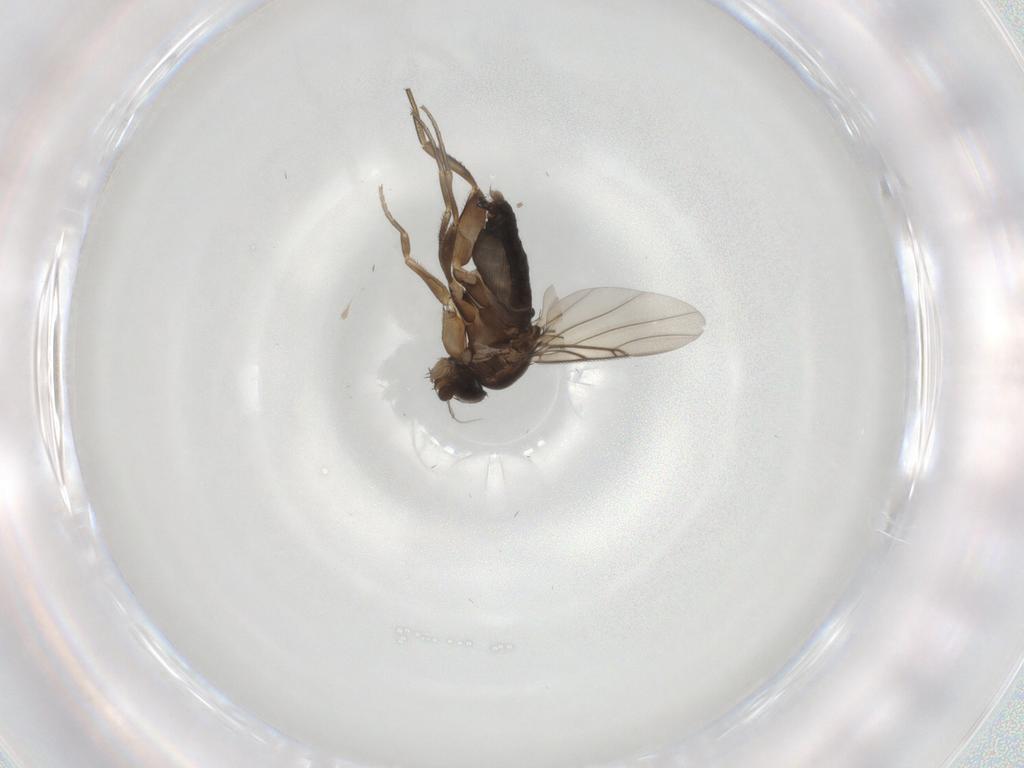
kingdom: Animalia
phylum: Arthropoda
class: Insecta
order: Diptera
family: Phoridae
